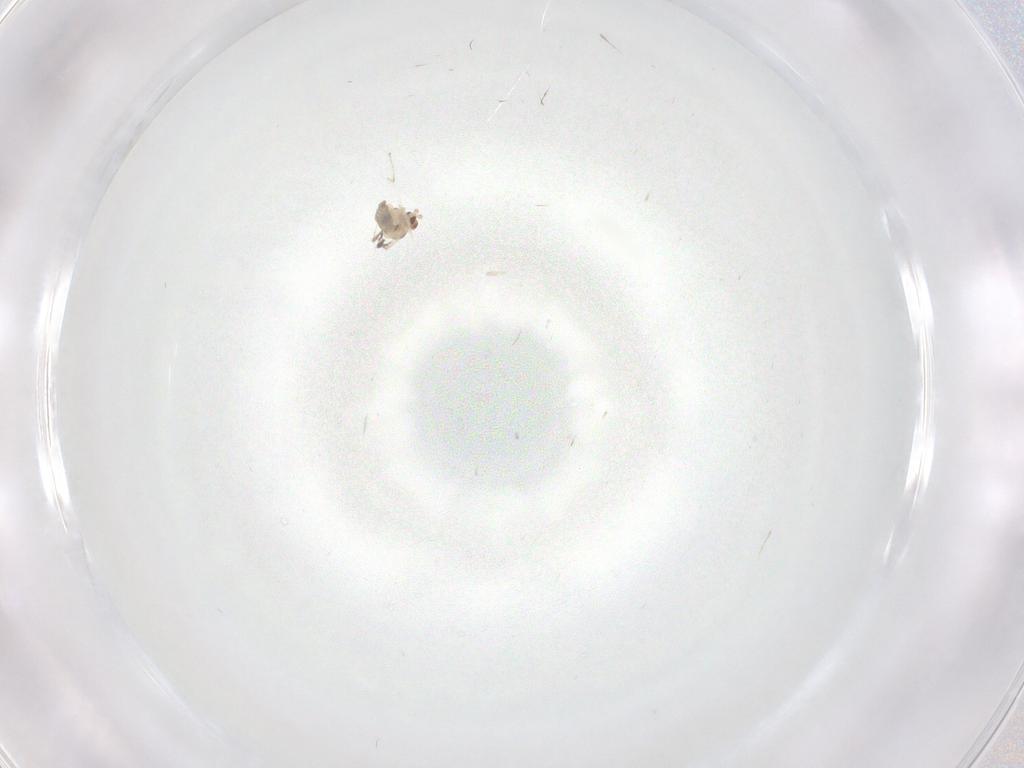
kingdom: Animalia
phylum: Arthropoda
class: Insecta
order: Diptera
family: Cecidomyiidae
